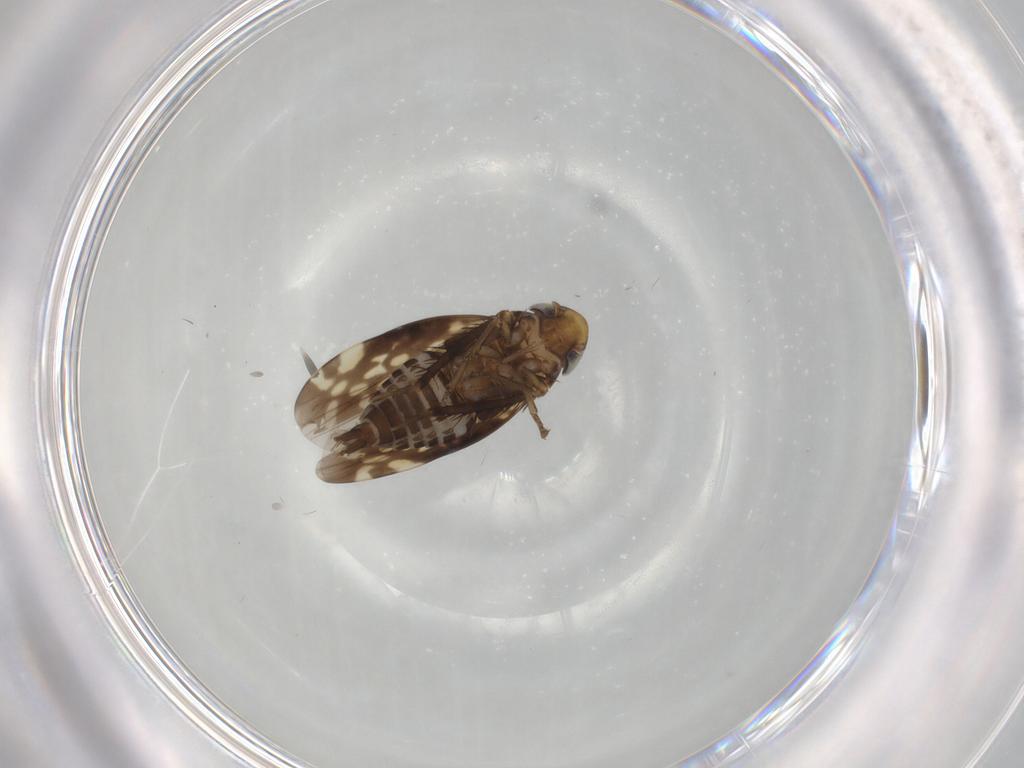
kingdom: Animalia
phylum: Arthropoda
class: Insecta
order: Hemiptera
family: Cicadellidae
